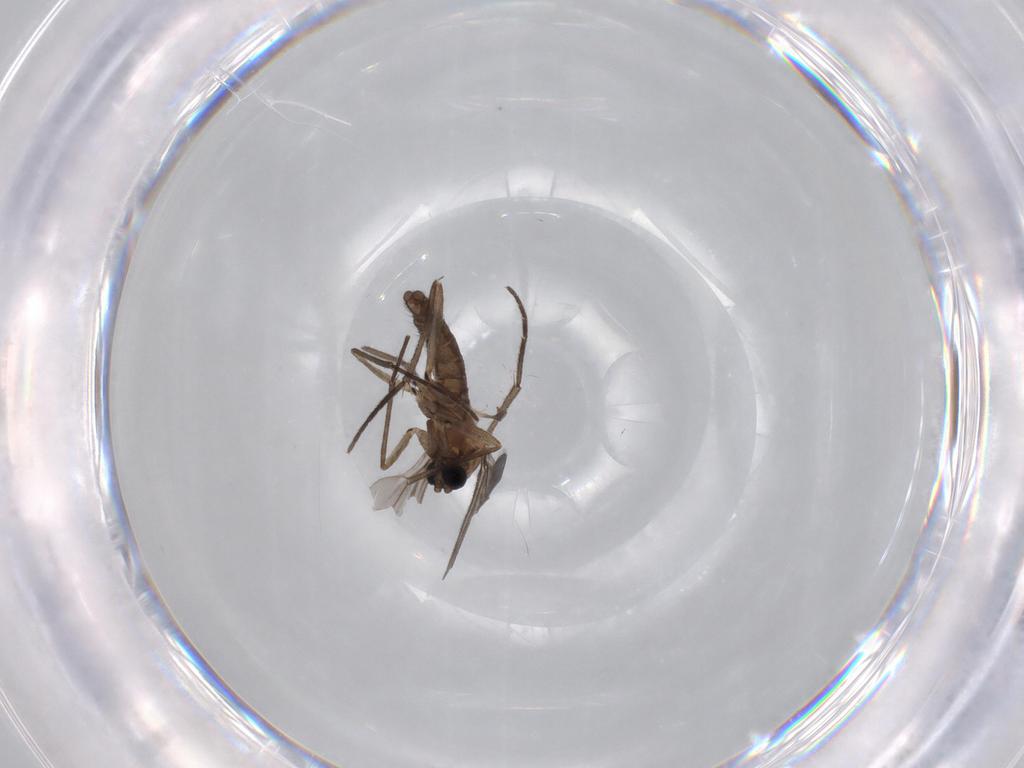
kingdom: Animalia
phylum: Arthropoda
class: Insecta
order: Diptera
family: Sciaridae
